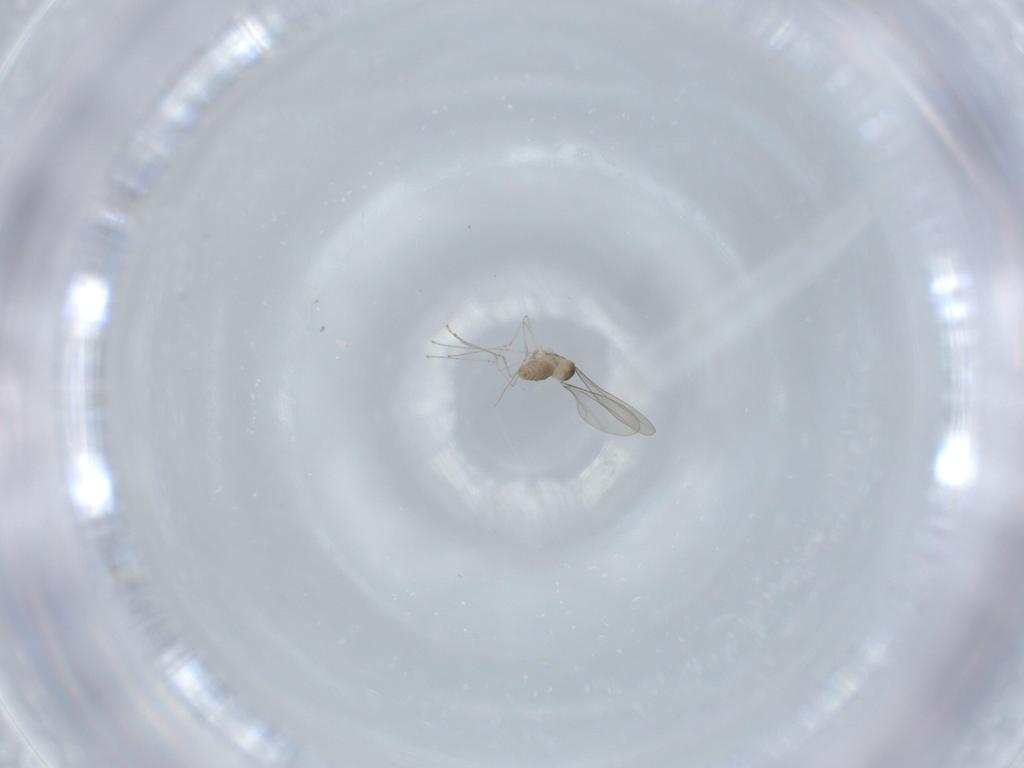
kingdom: Animalia
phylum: Arthropoda
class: Insecta
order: Diptera
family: Cecidomyiidae
